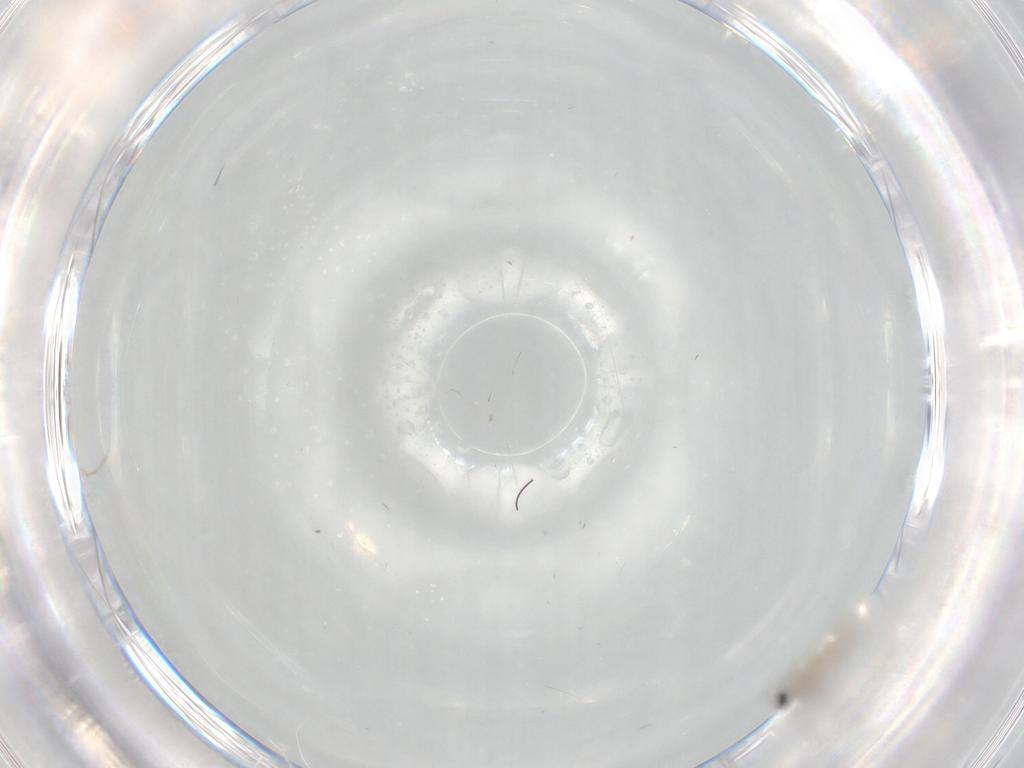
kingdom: Animalia
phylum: Arthropoda
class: Insecta
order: Diptera
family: Cecidomyiidae
